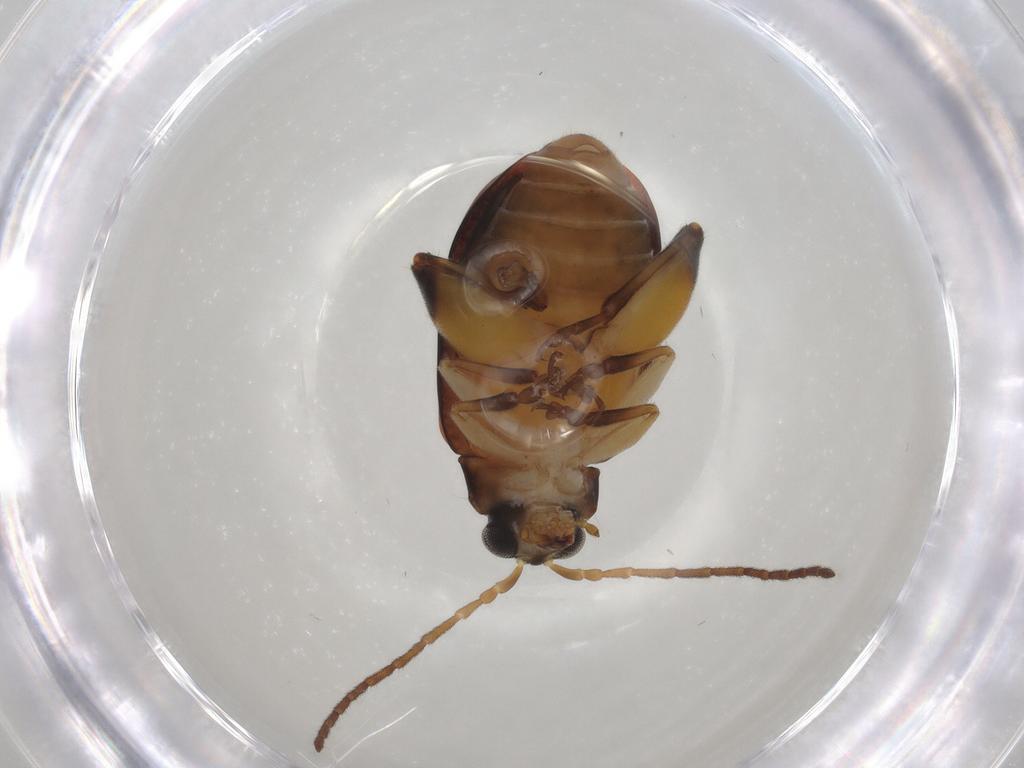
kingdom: Animalia
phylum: Arthropoda
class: Insecta
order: Coleoptera
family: Chrysomelidae
